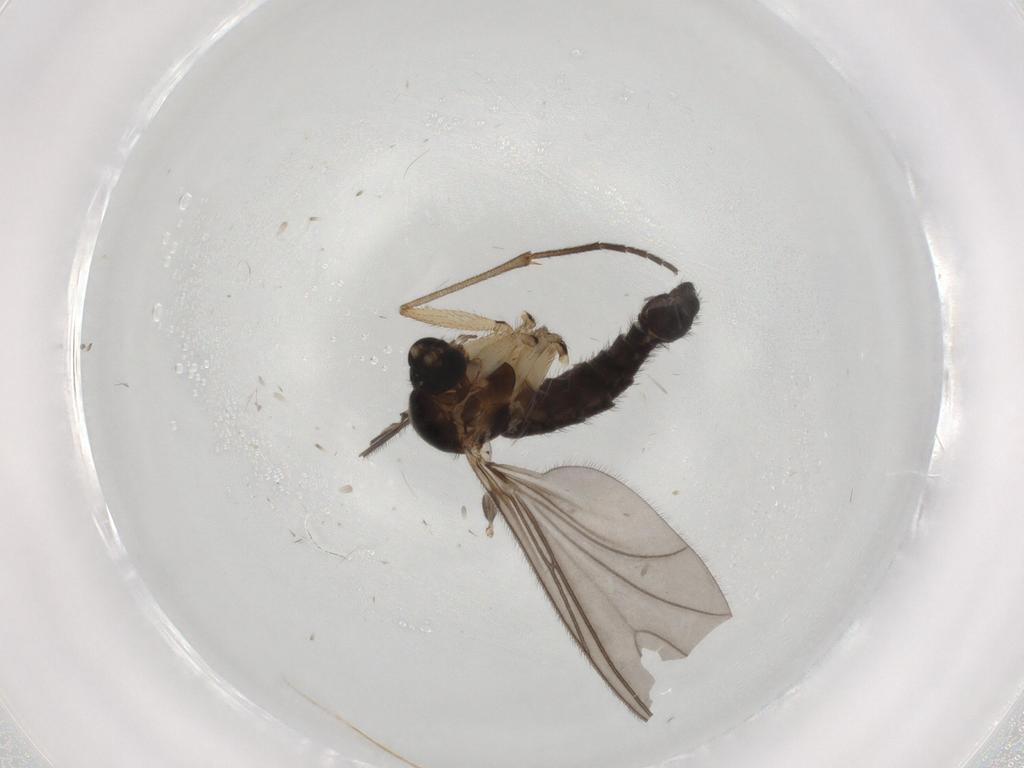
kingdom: Animalia
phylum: Arthropoda
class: Insecta
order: Diptera
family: Sciaridae
